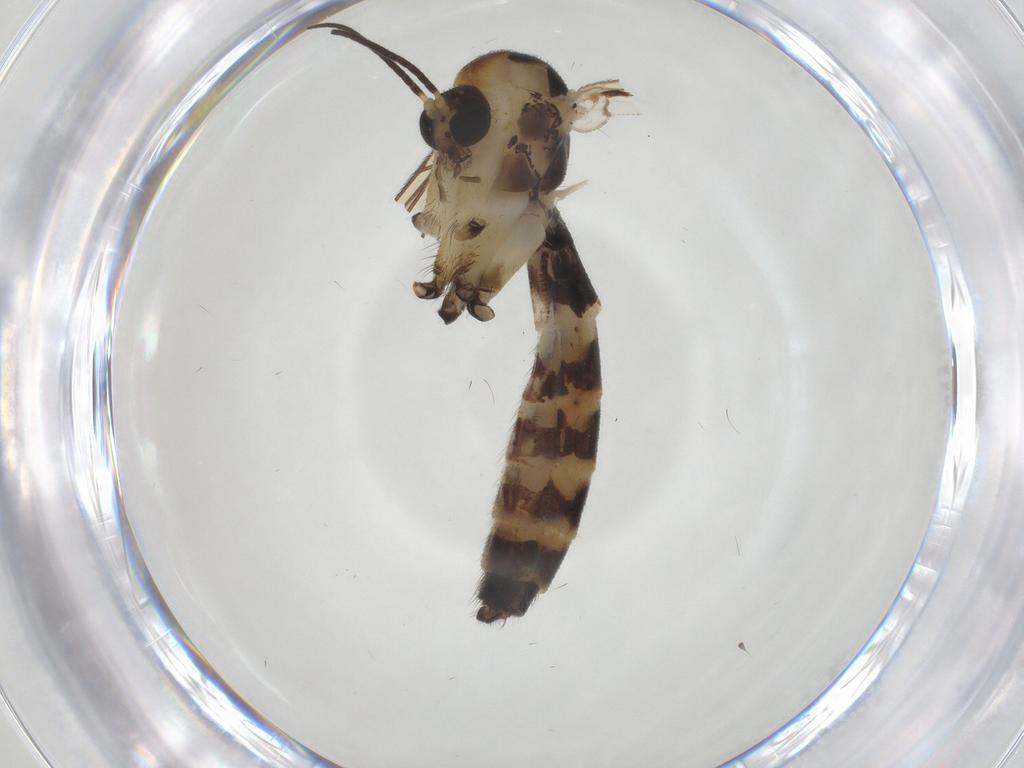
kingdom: Animalia
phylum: Arthropoda
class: Insecta
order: Diptera
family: Mycetophilidae
